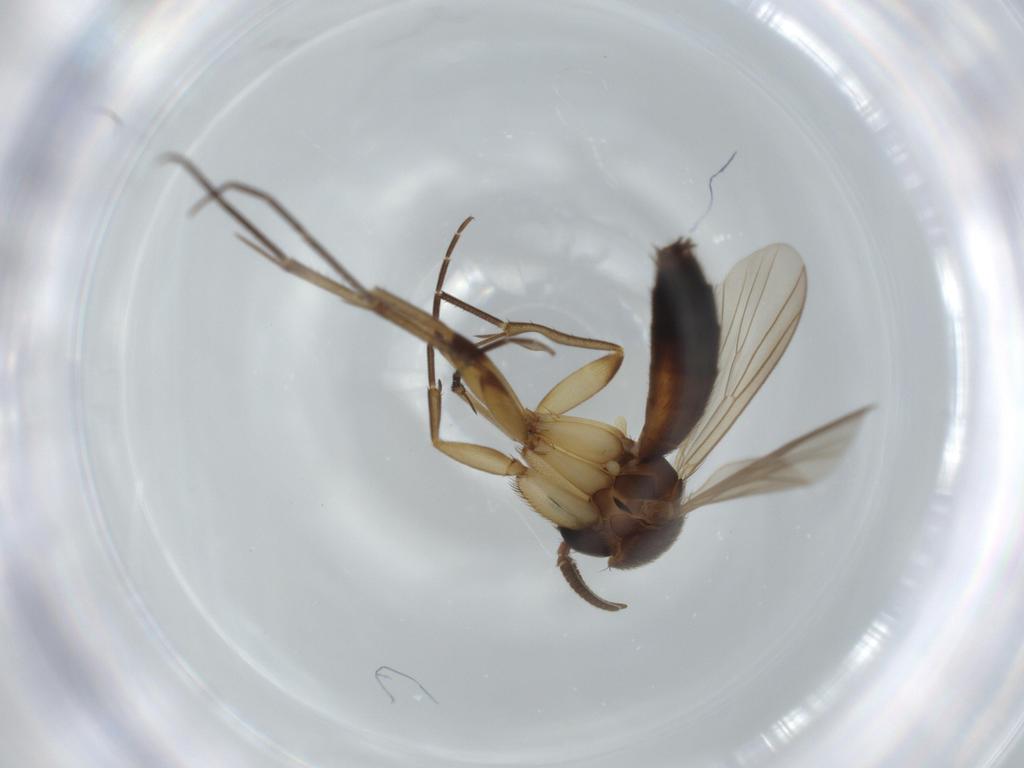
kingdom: Animalia
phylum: Arthropoda
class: Insecta
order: Diptera
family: Mycetophilidae
